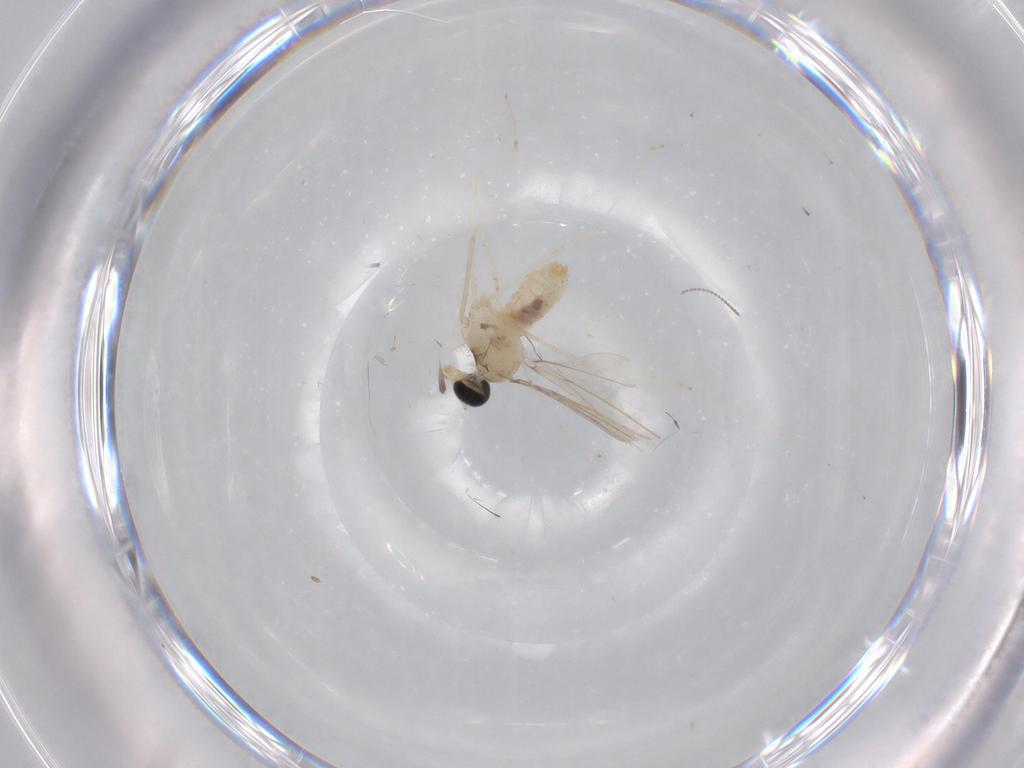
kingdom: Animalia
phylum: Arthropoda
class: Insecta
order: Diptera
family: Cecidomyiidae
